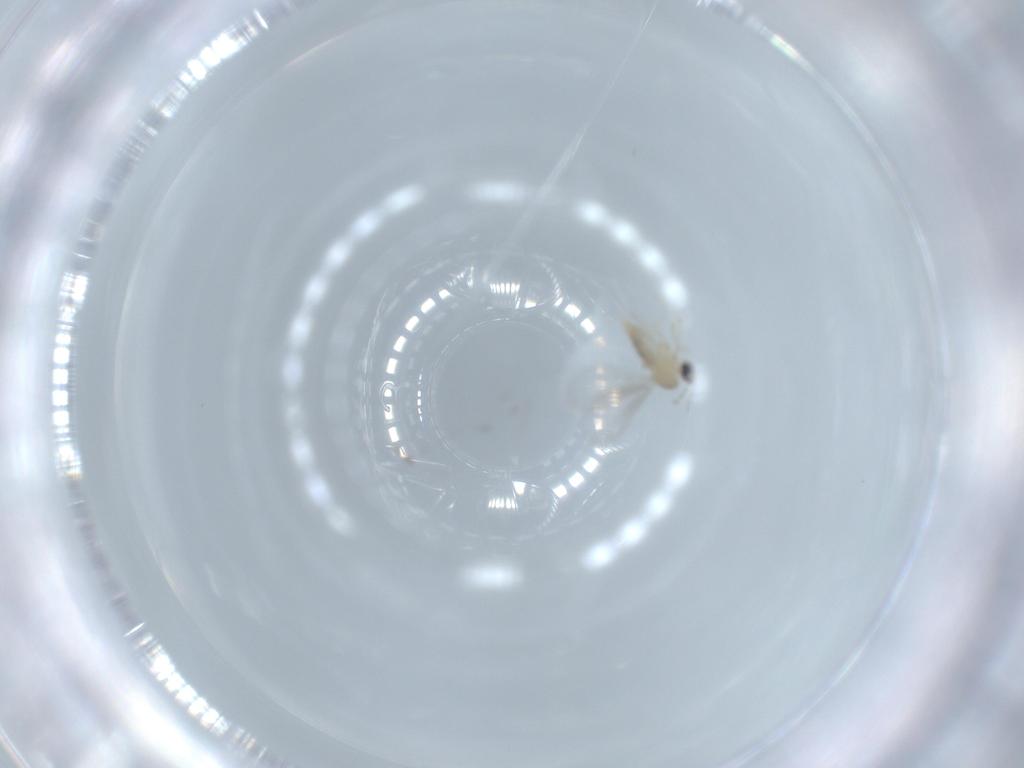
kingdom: Animalia
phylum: Arthropoda
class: Insecta
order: Diptera
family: Cecidomyiidae
